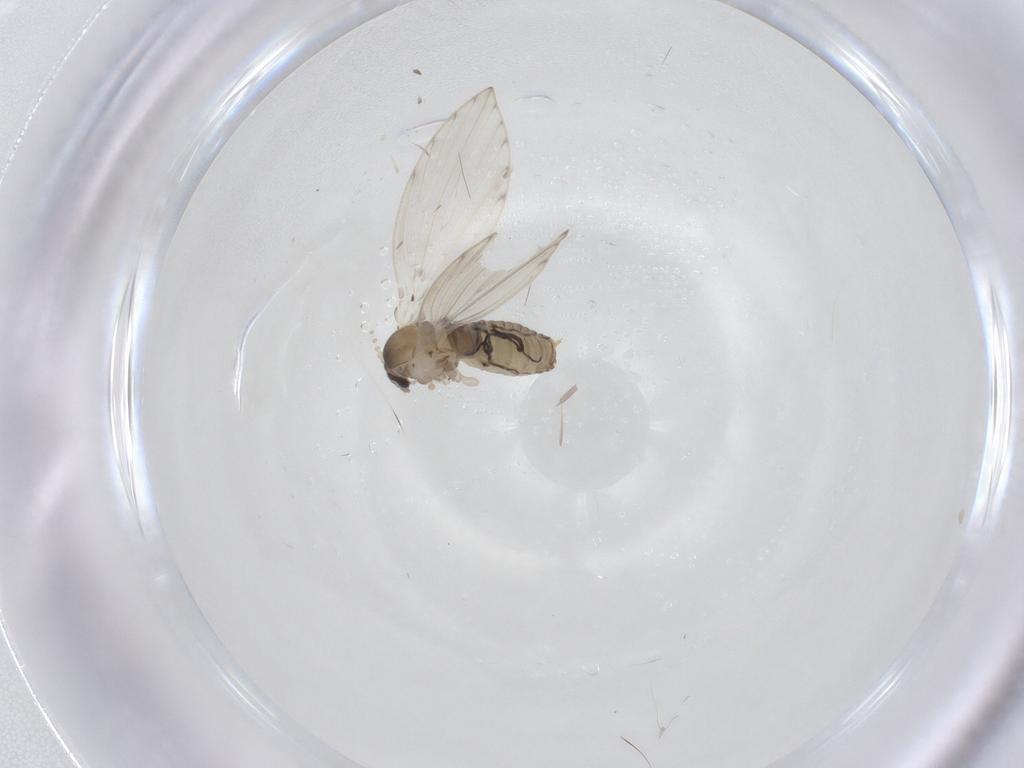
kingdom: Animalia
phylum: Arthropoda
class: Insecta
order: Diptera
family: Psychodidae
